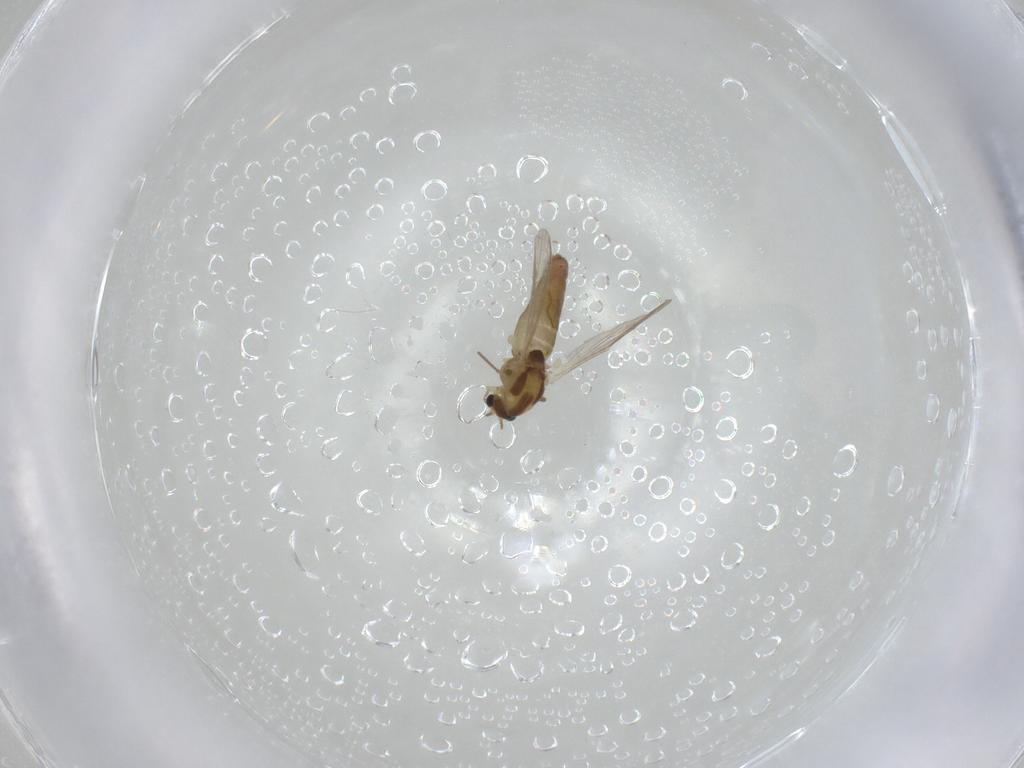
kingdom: Animalia
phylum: Arthropoda
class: Insecta
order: Diptera
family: Chironomidae
